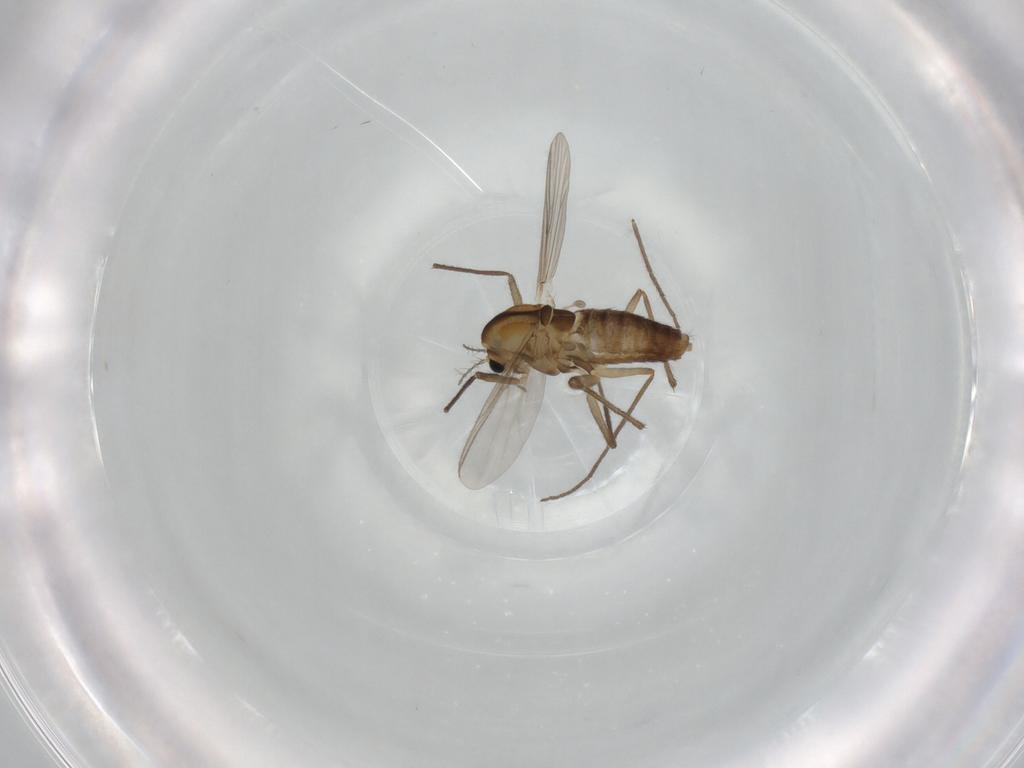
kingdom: Animalia
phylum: Arthropoda
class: Insecta
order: Diptera
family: Chironomidae
